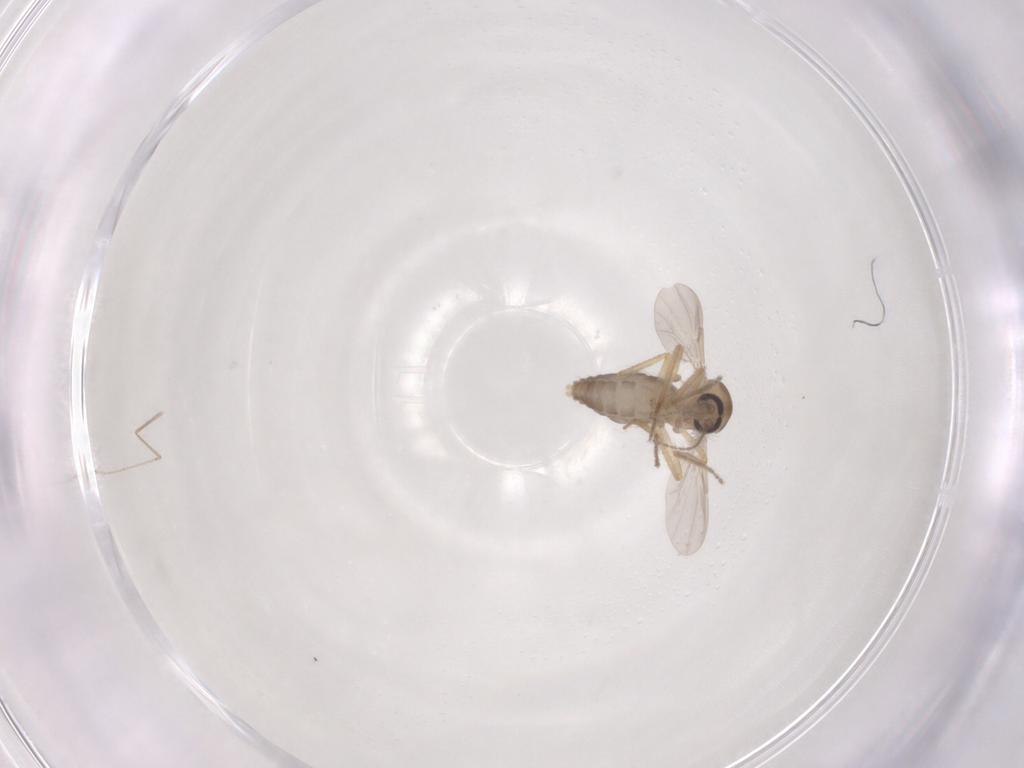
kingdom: Animalia
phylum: Arthropoda
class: Insecta
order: Diptera
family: Ceratopogonidae
